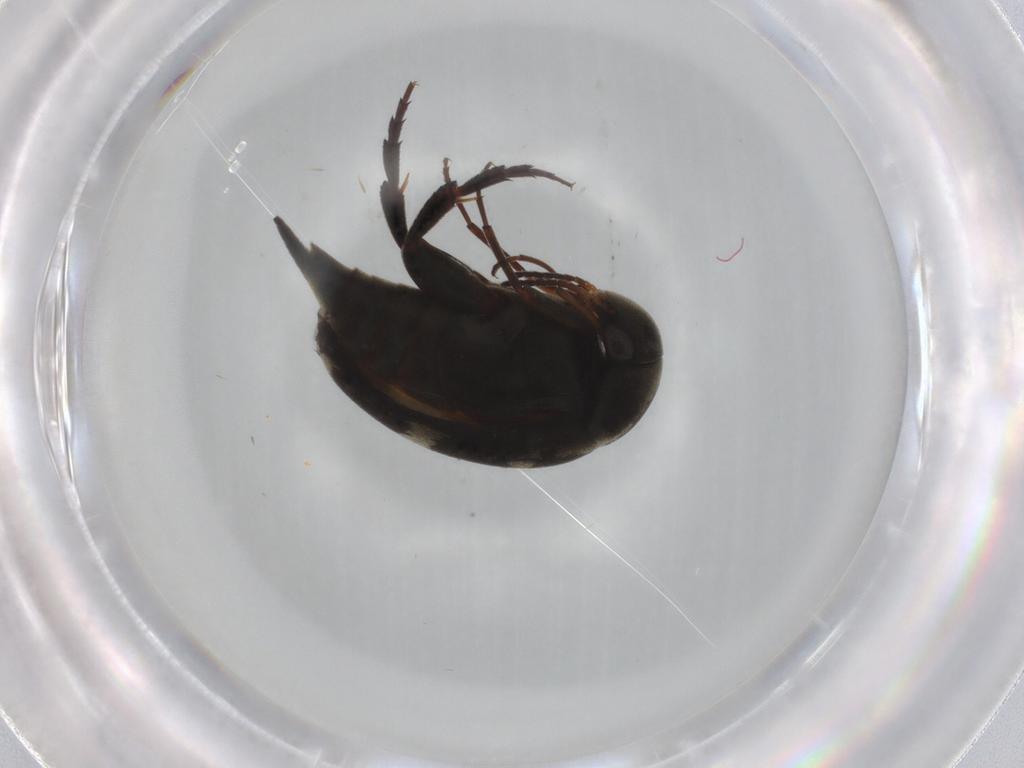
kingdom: Animalia
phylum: Arthropoda
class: Insecta
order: Coleoptera
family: Mordellidae
